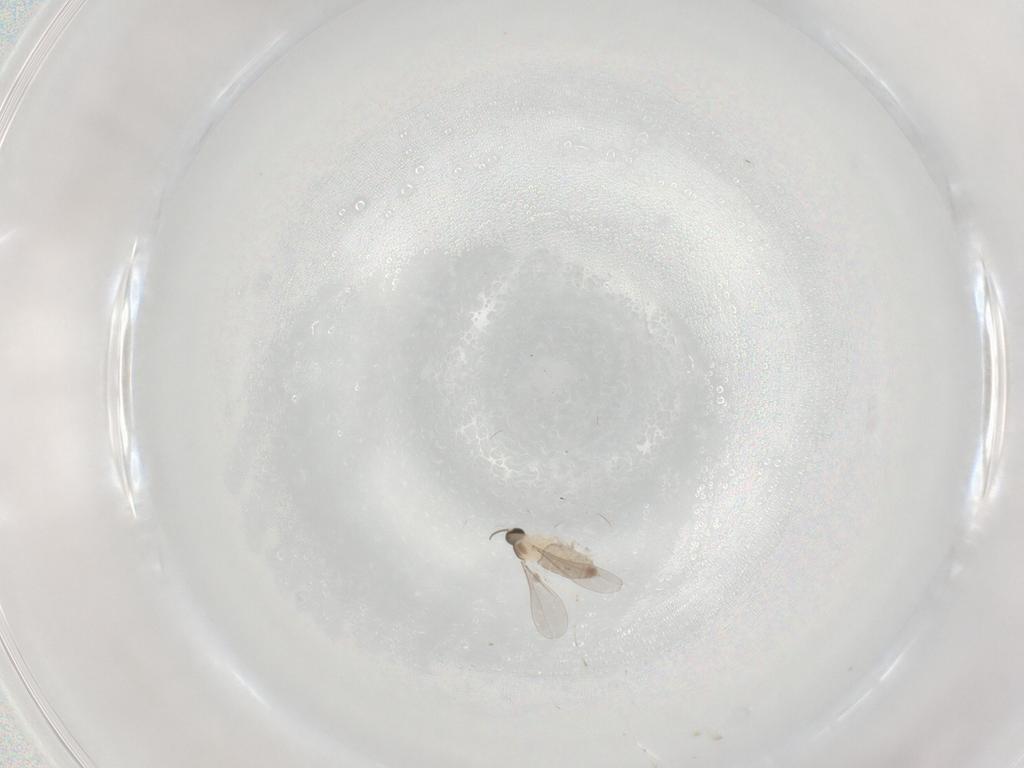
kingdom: Animalia
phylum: Arthropoda
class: Insecta
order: Diptera
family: Cecidomyiidae
